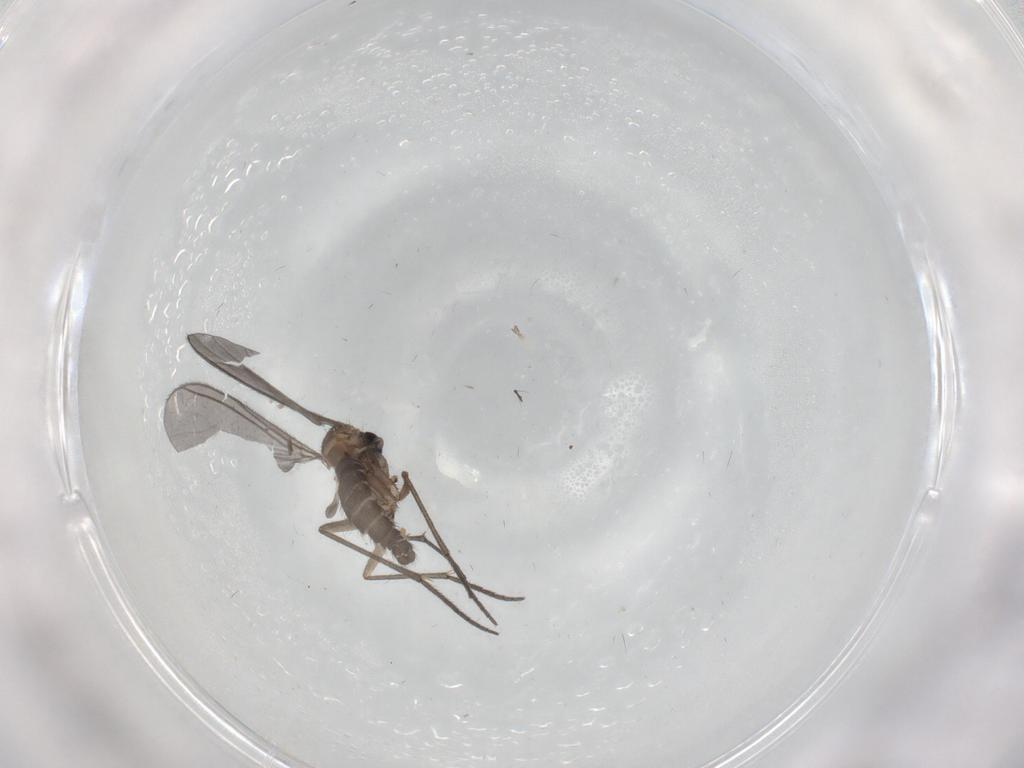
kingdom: Animalia
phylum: Arthropoda
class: Insecta
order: Diptera
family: Sciaridae
